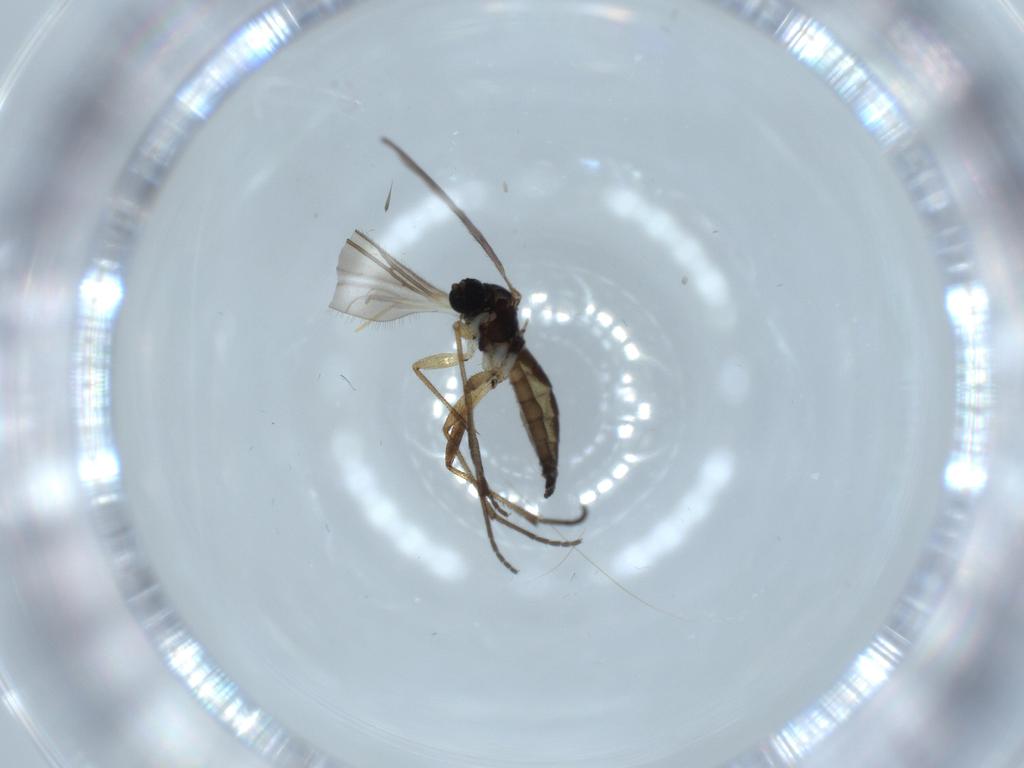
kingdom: Animalia
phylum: Arthropoda
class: Insecta
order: Diptera
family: Sciaridae
